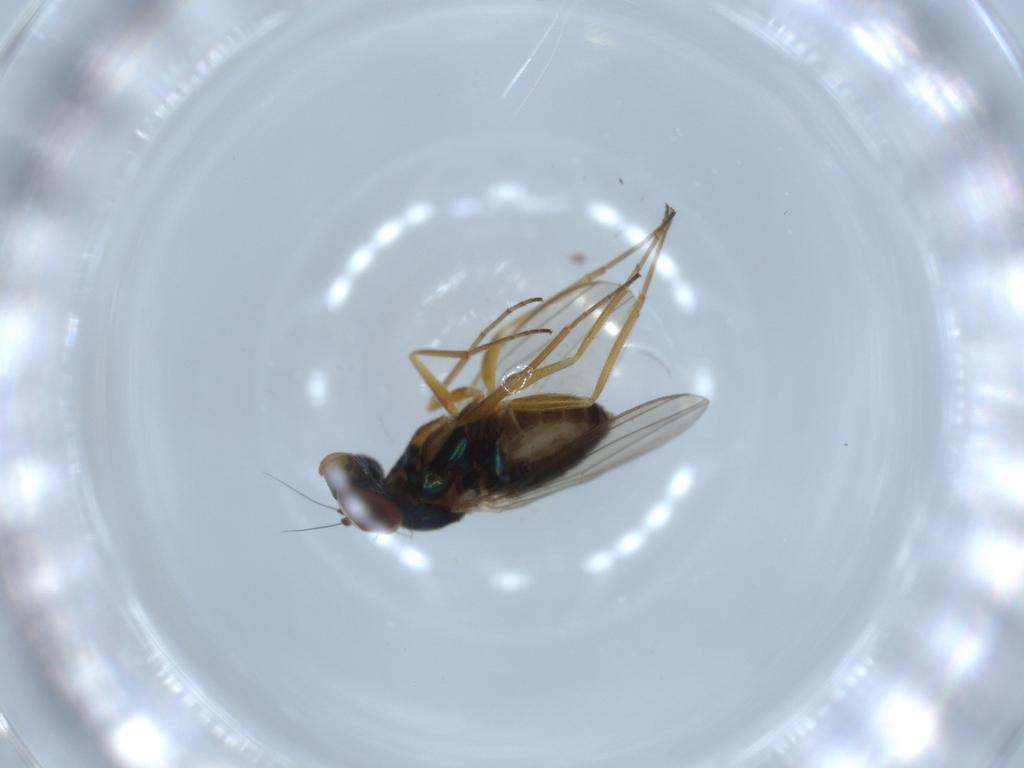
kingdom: Animalia
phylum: Arthropoda
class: Insecta
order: Diptera
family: Dolichopodidae
